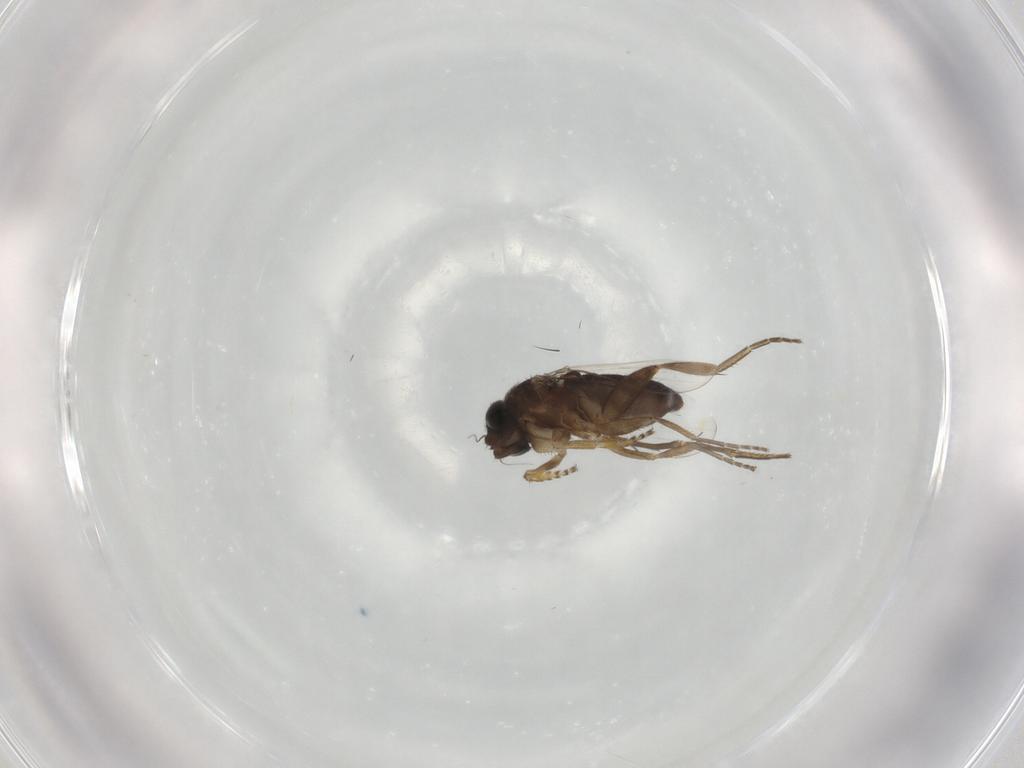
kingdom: Animalia
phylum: Arthropoda
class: Insecta
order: Diptera
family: Phoridae
